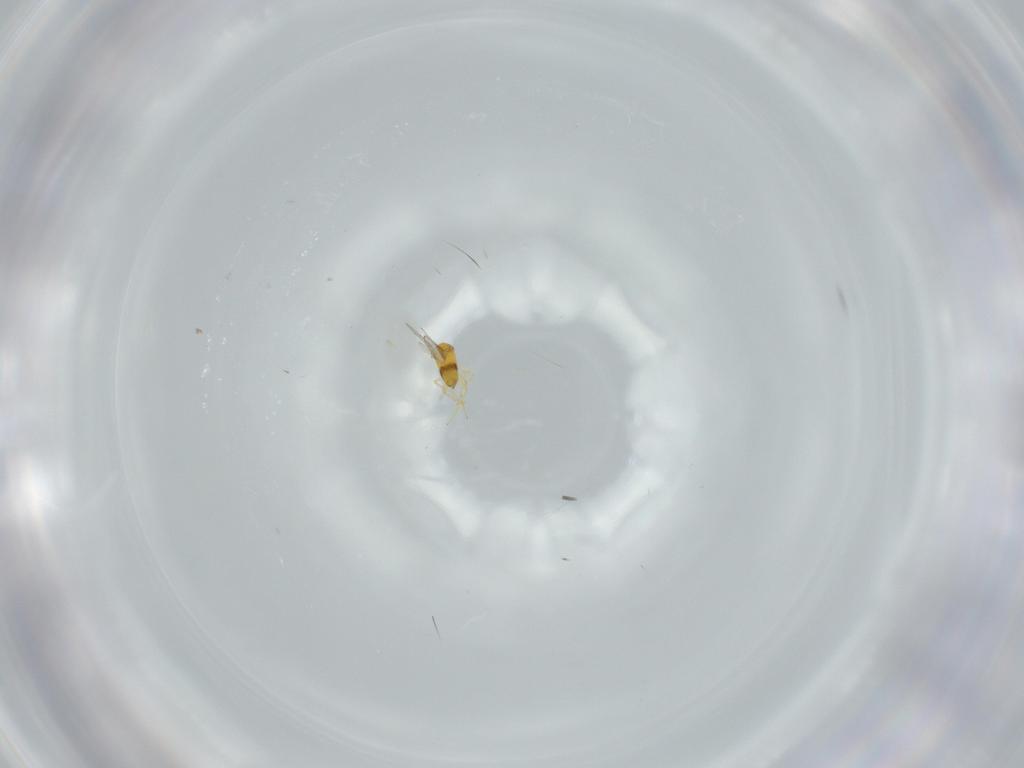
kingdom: Animalia
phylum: Arthropoda
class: Insecta
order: Hymenoptera
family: Trichogrammatidae
